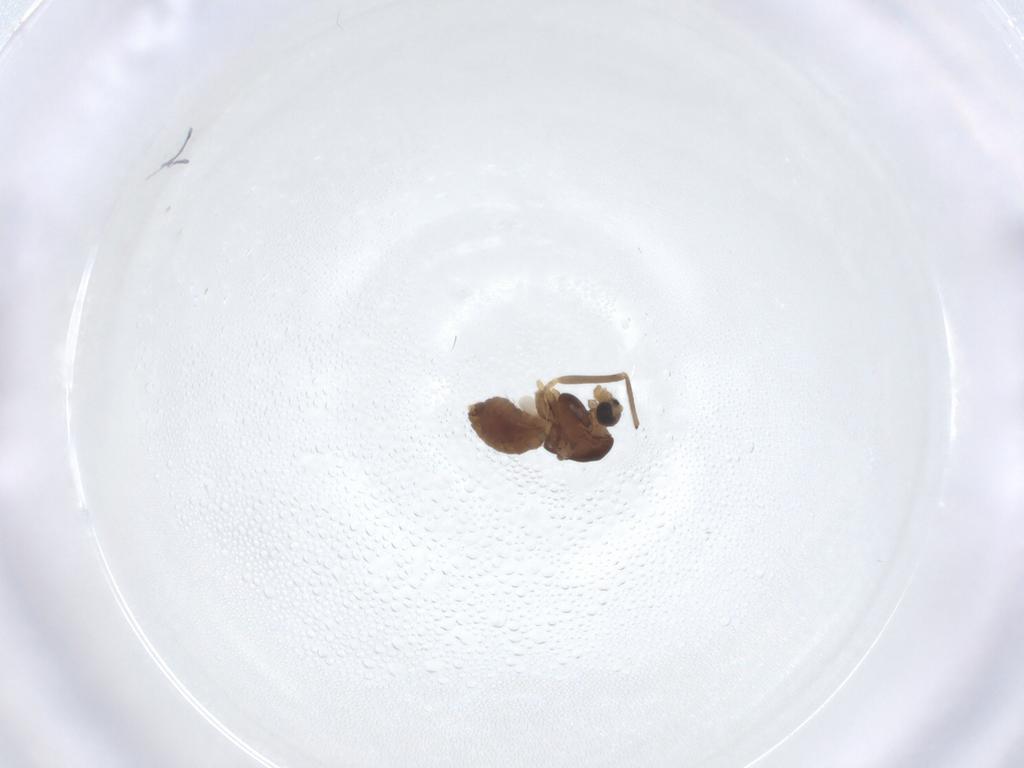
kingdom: Animalia
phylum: Arthropoda
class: Insecta
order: Diptera
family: Chironomidae
